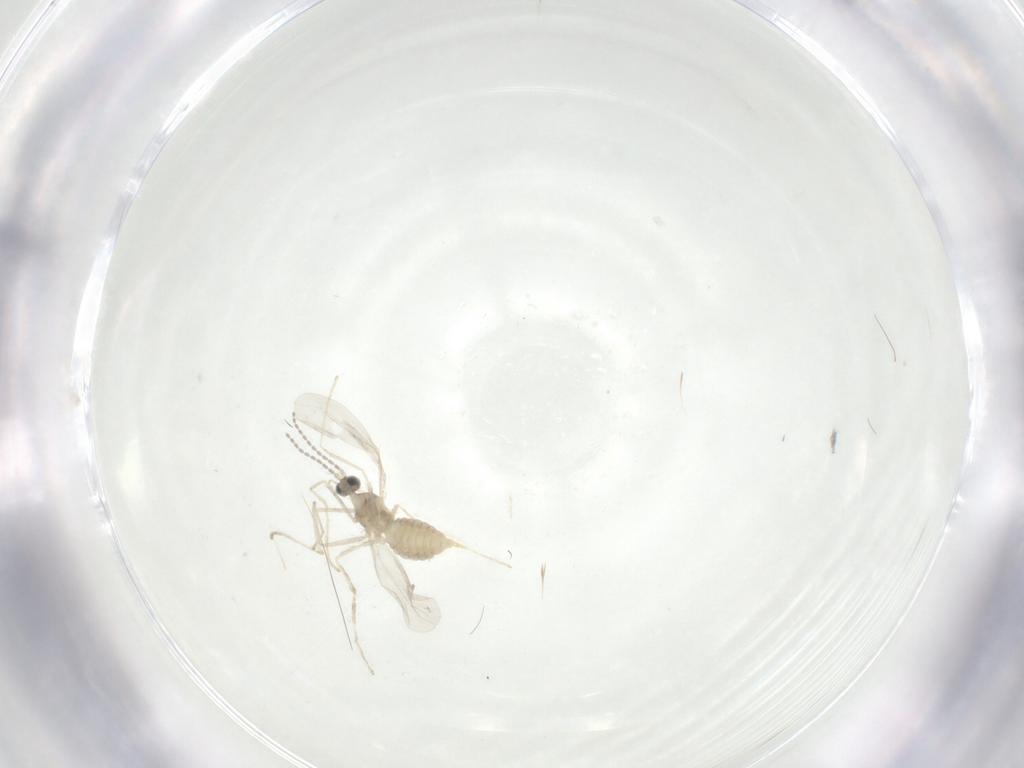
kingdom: Animalia
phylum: Arthropoda
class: Insecta
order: Diptera
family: Cecidomyiidae
